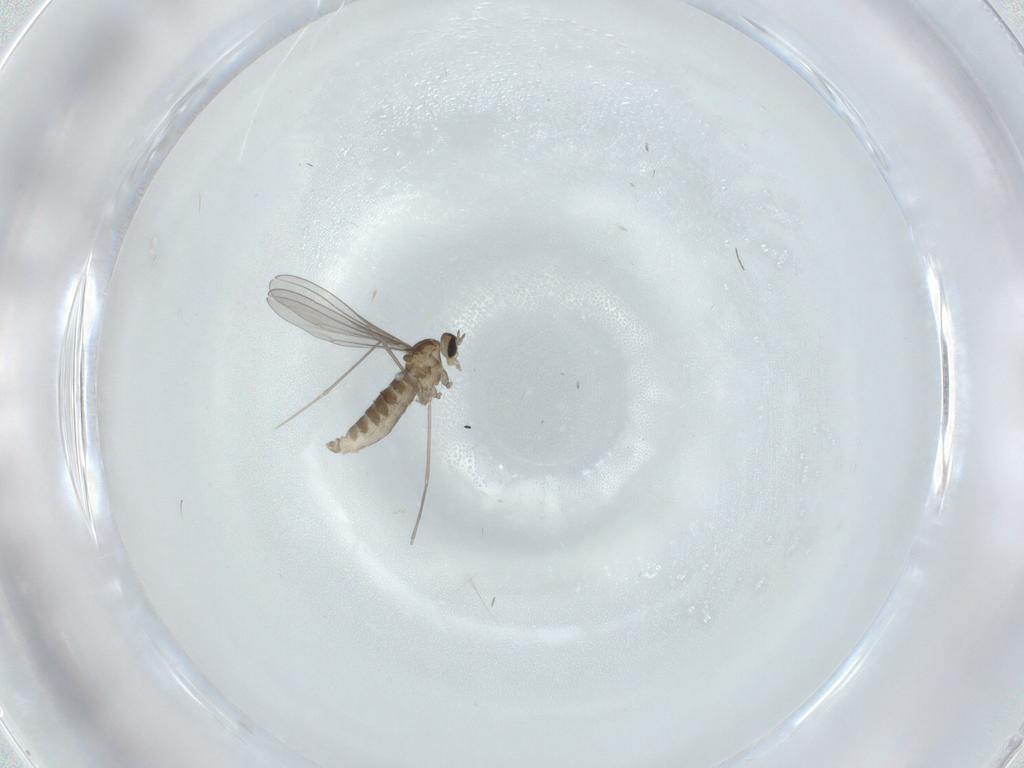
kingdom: Animalia
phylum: Arthropoda
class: Insecta
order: Diptera
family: Cecidomyiidae
